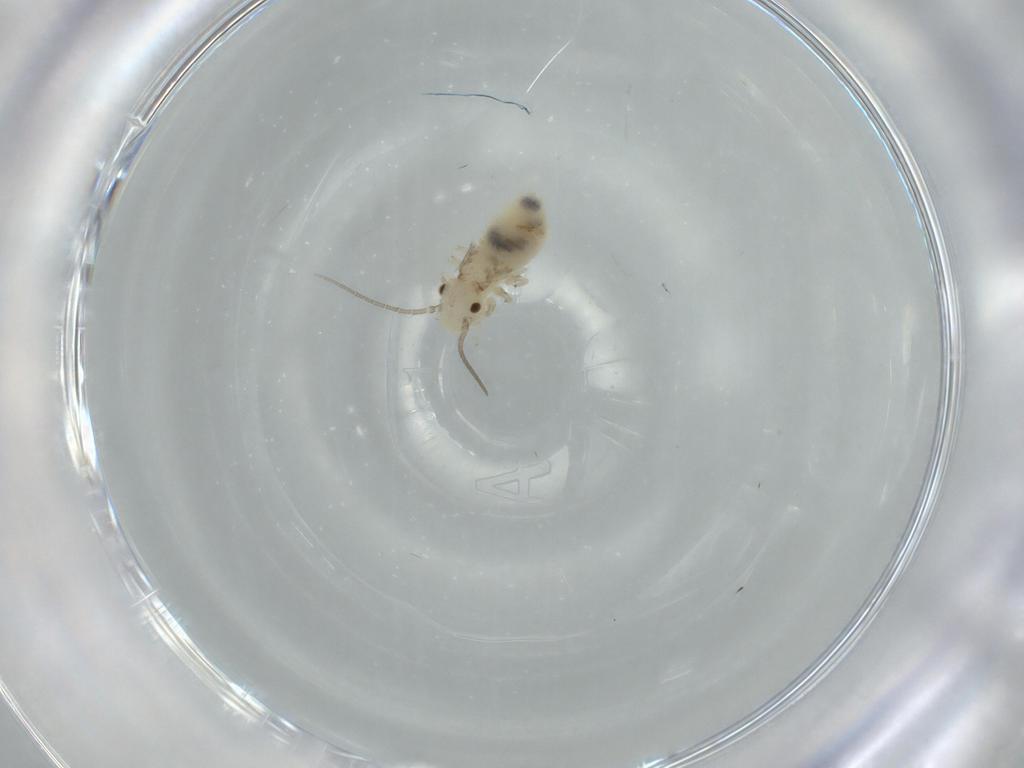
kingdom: Animalia
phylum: Arthropoda
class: Insecta
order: Psocodea
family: Caeciliusidae
